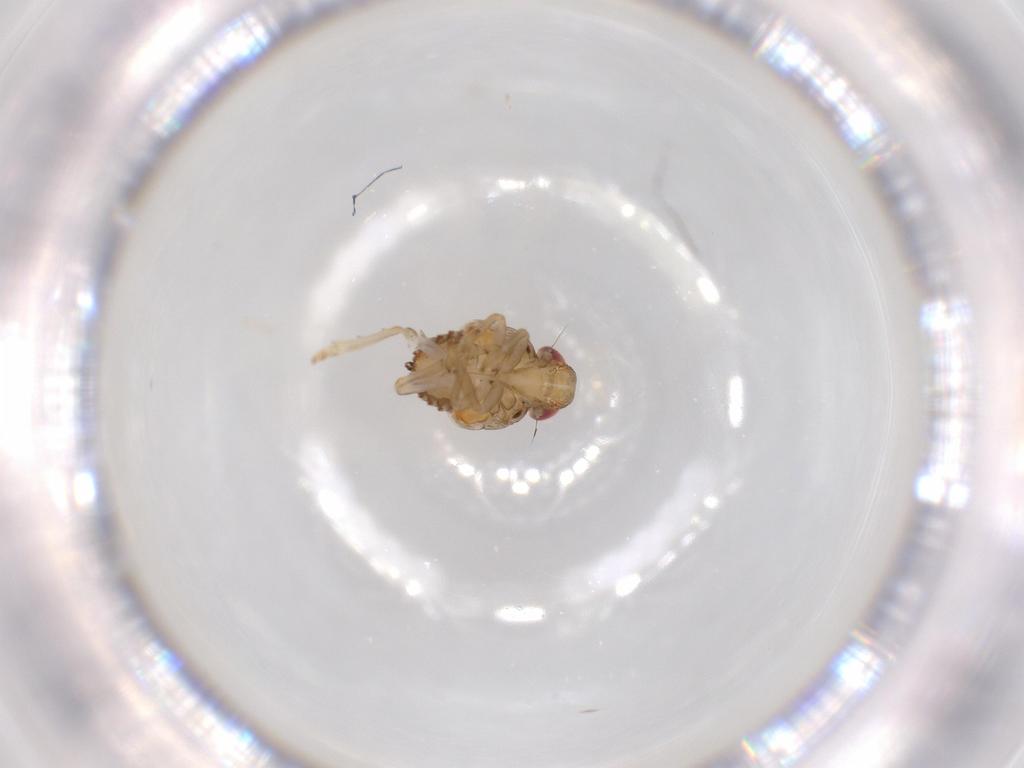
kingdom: Animalia
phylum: Arthropoda
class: Insecta
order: Hemiptera
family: Issidae
